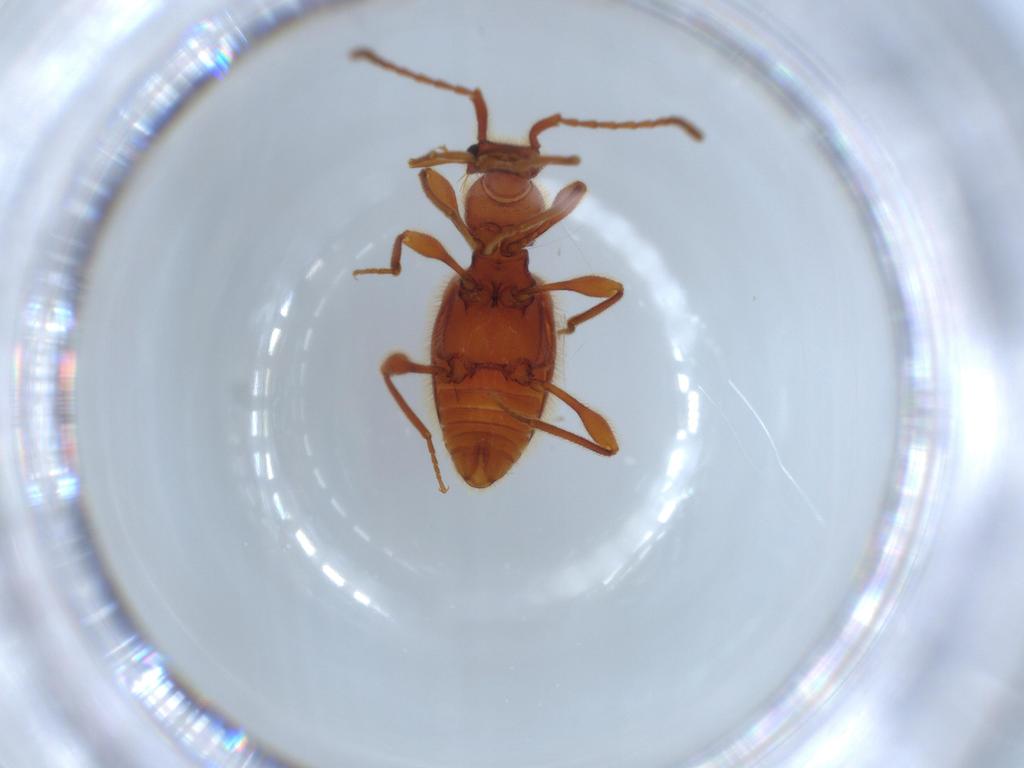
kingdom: Animalia
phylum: Arthropoda
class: Insecta
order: Coleoptera
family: Staphylinidae
